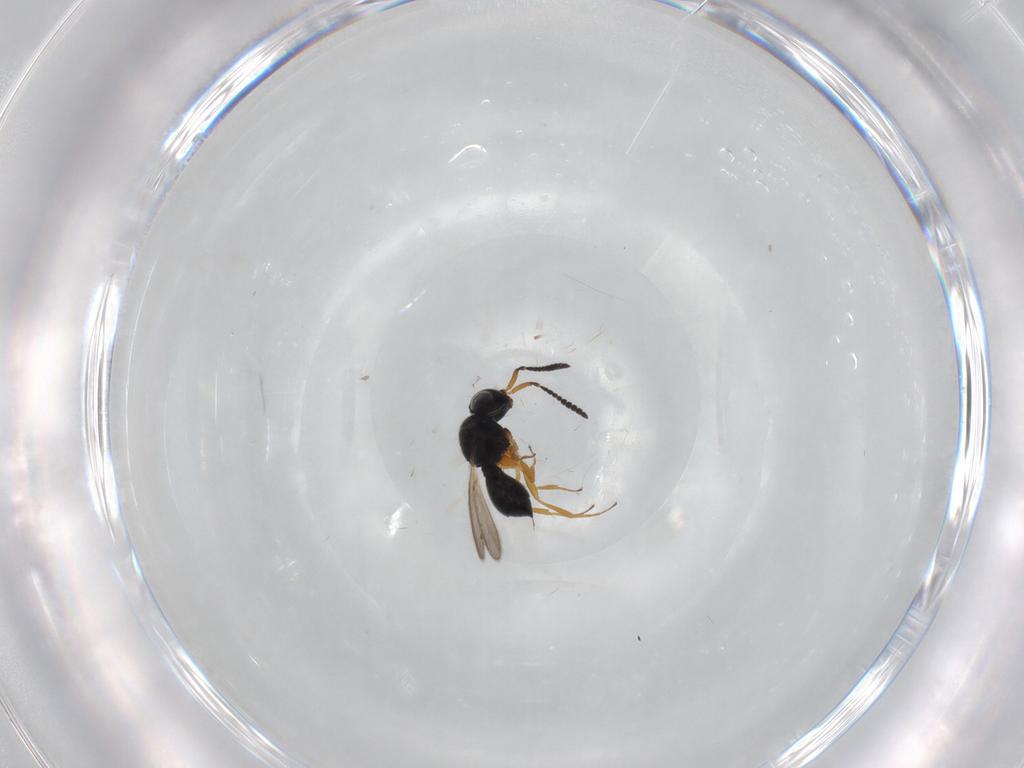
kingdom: Animalia
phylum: Arthropoda
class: Insecta
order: Hymenoptera
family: Scelionidae
